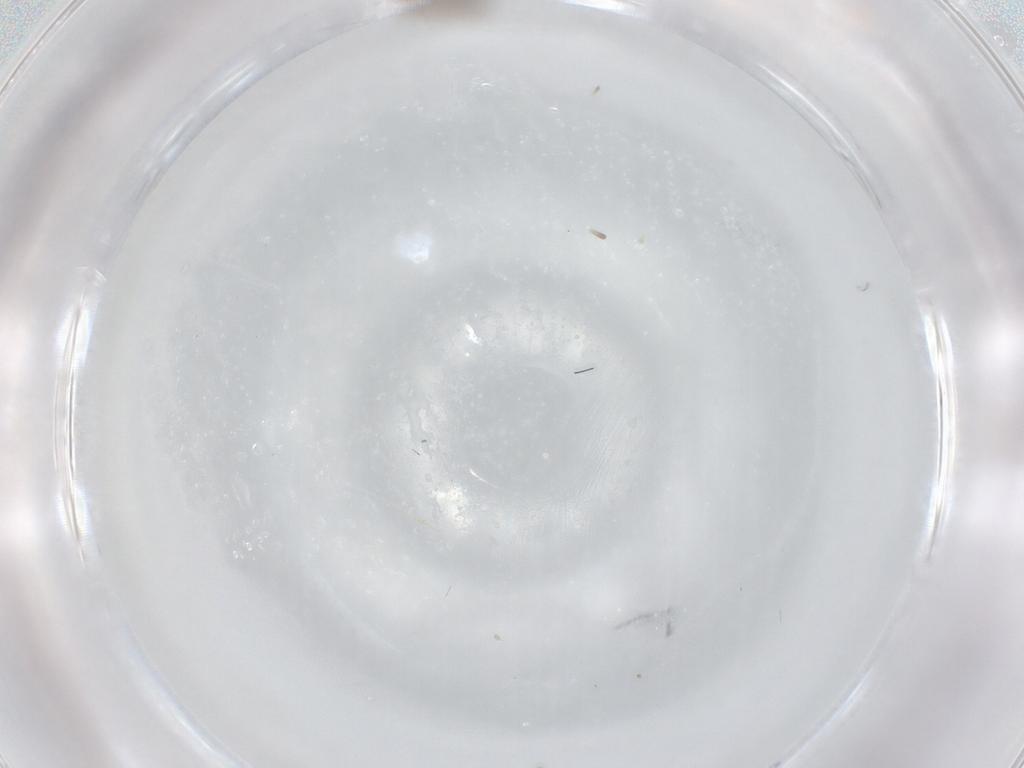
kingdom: Animalia
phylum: Arthropoda
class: Insecta
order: Hymenoptera
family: Formicidae
